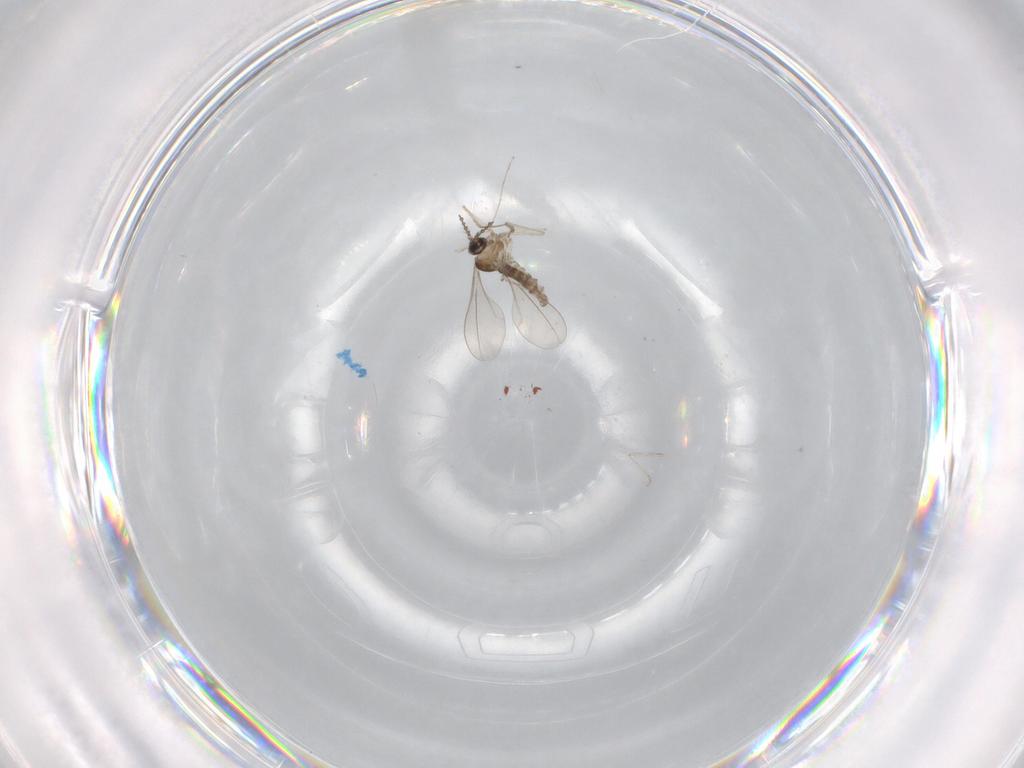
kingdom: Animalia
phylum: Arthropoda
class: Insecta
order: Diptera
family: Cecidomyiidae
